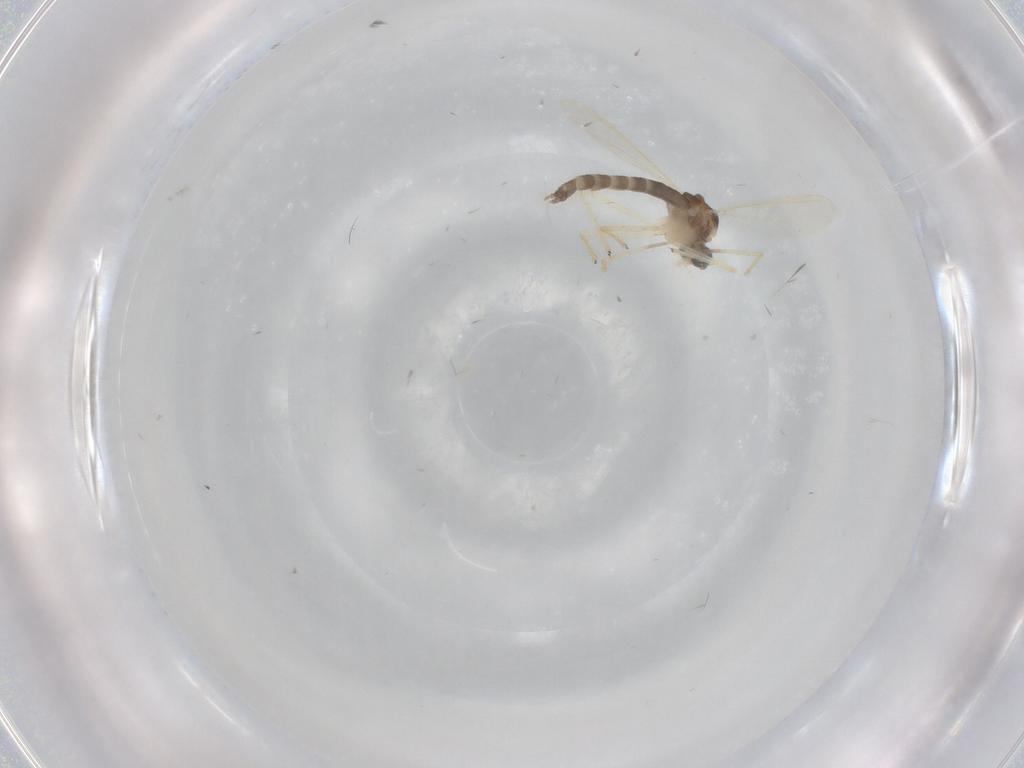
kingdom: Animalia
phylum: Arthropoda
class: Insecta
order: Diptera
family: Chironomidae
